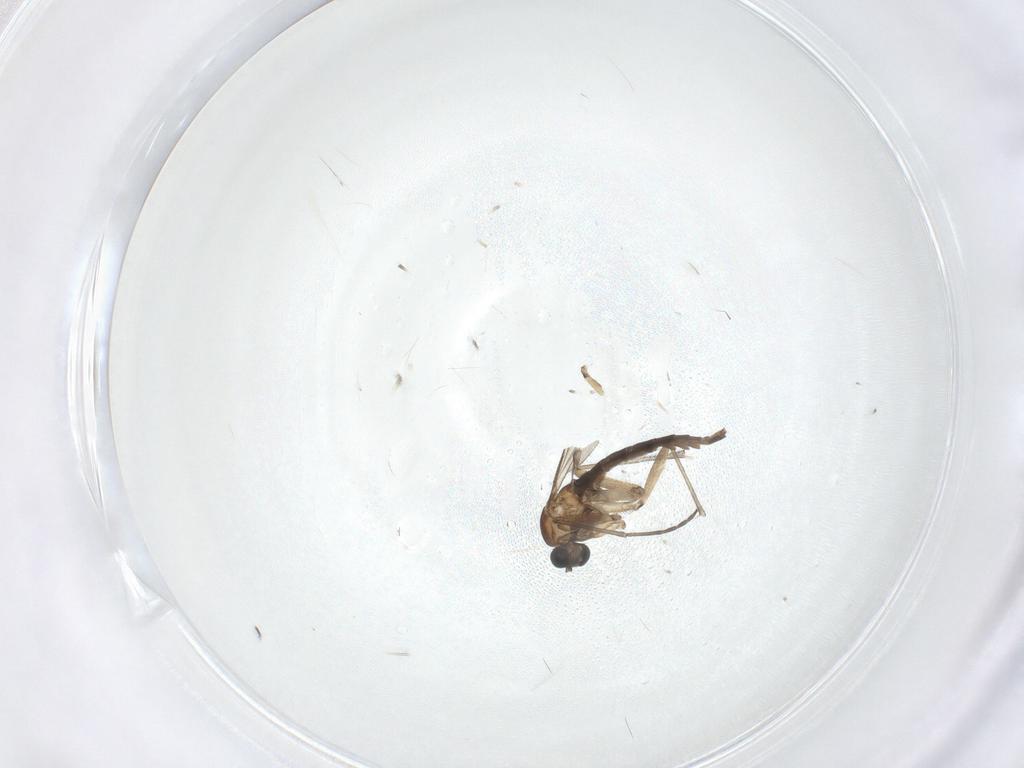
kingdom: Animalia
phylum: Arthropoda
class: Insecta
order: Diptera
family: Sciaridae
